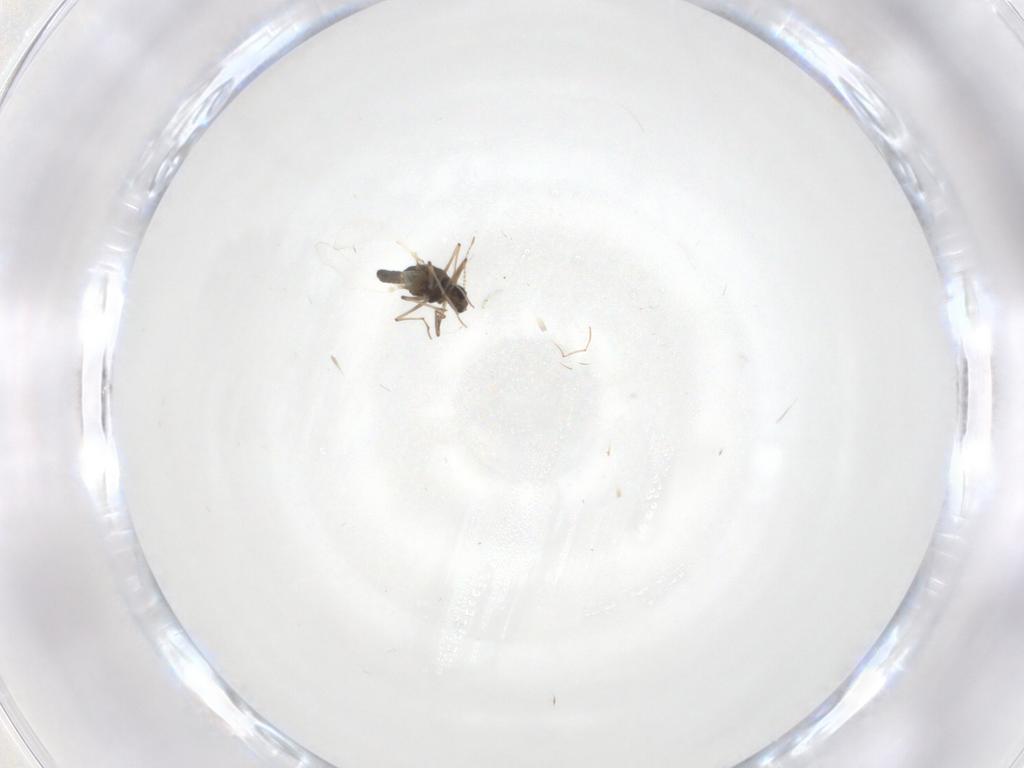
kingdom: Animalia
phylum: Arthropoda
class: Insecta
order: Diptera
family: Chironomidae
